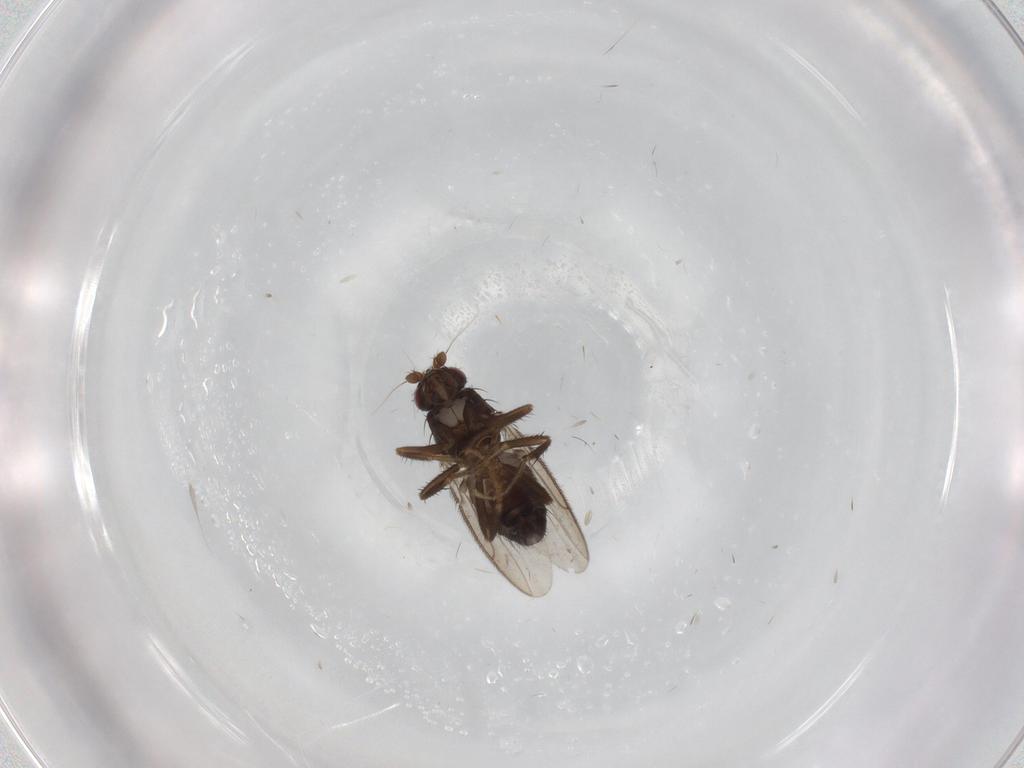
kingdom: Animalia
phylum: Arthropoda
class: Insecta
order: Diptera
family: Sphaeroceridae
